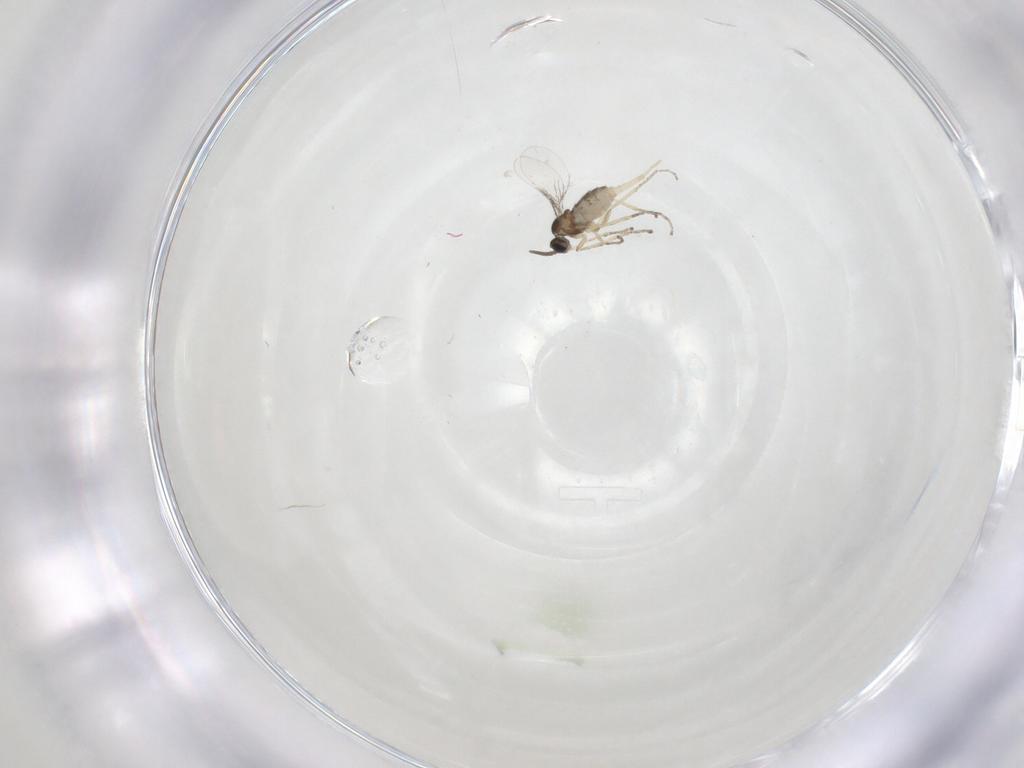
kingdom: Animalia
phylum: Arthropoda
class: Insecta
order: Diptera
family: Cecidomyiidae
